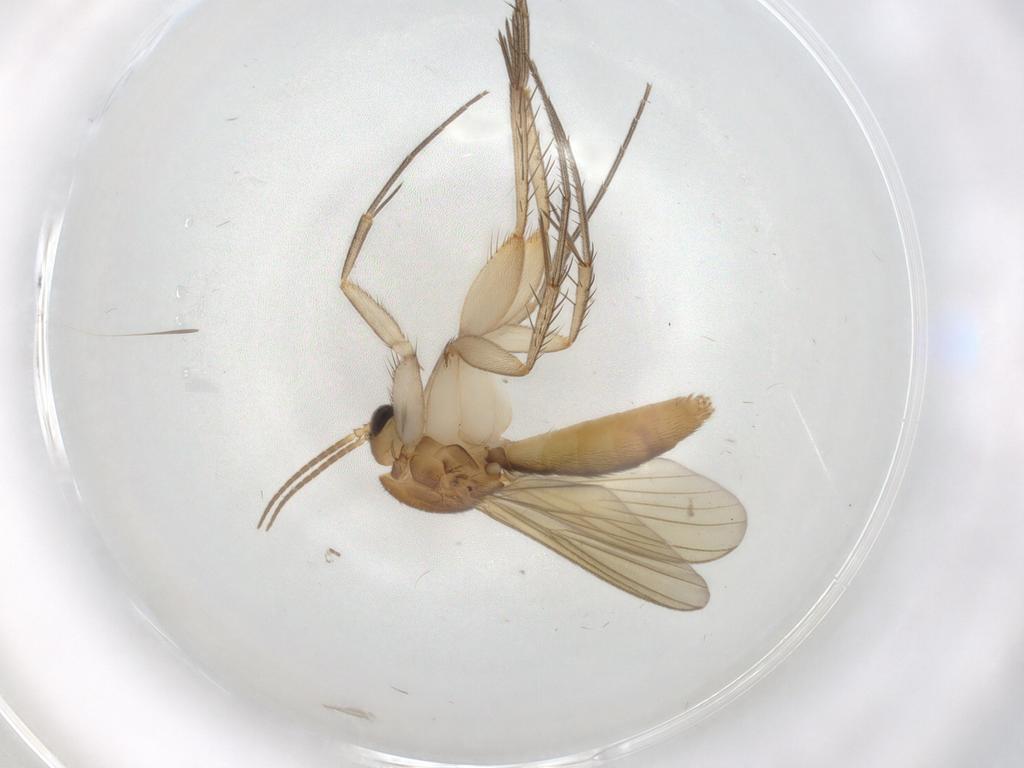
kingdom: Animalia
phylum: Arthropoda
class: Insecta
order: Diptera
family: Mycetophilidae
